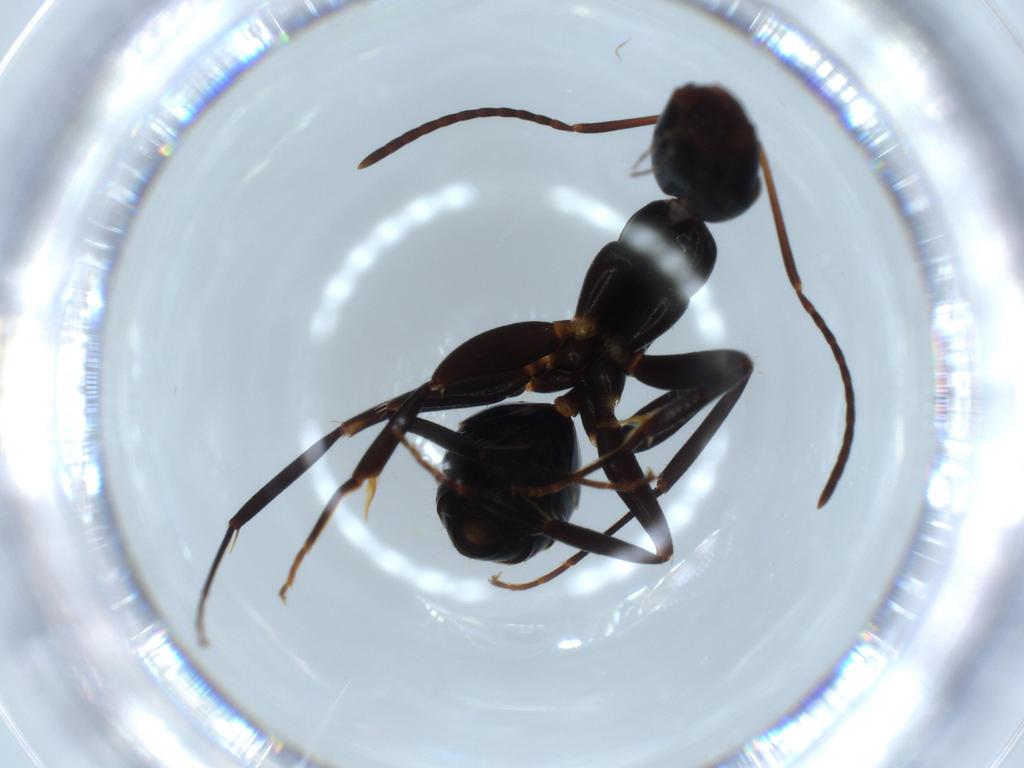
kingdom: Animalia
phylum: Arthropoda
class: Insecta
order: Hymenoptera
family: Formicidae
